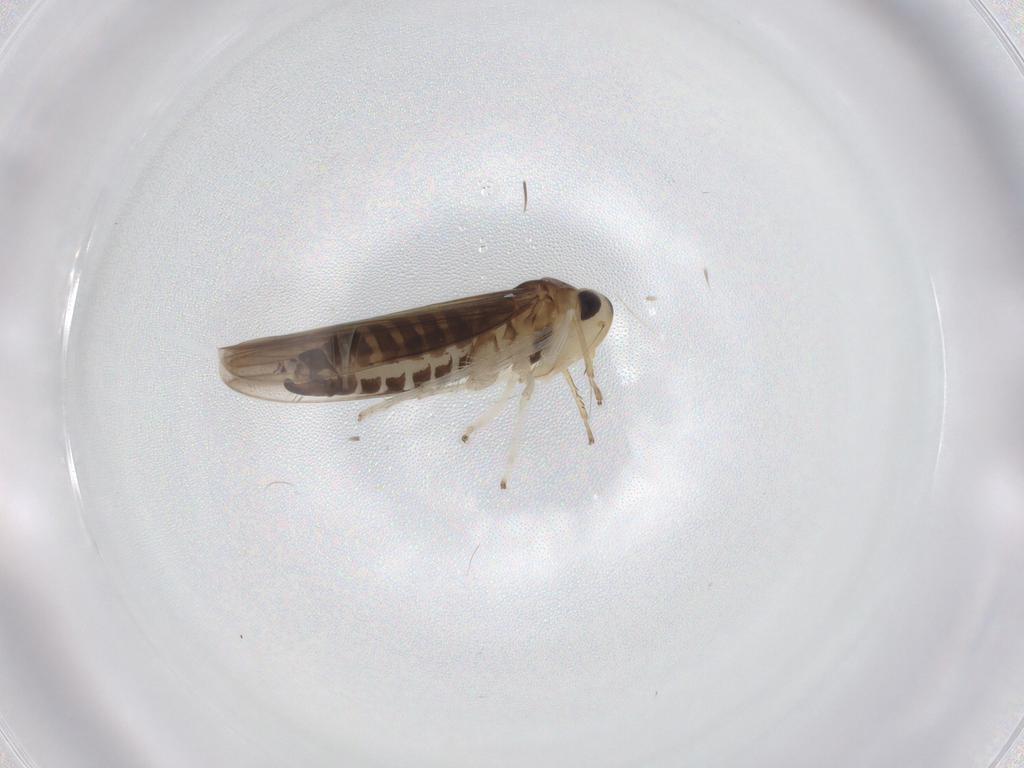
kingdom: Animalia
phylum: Arthropoda
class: Insecta
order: Hemiptera
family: Cicadellidae
